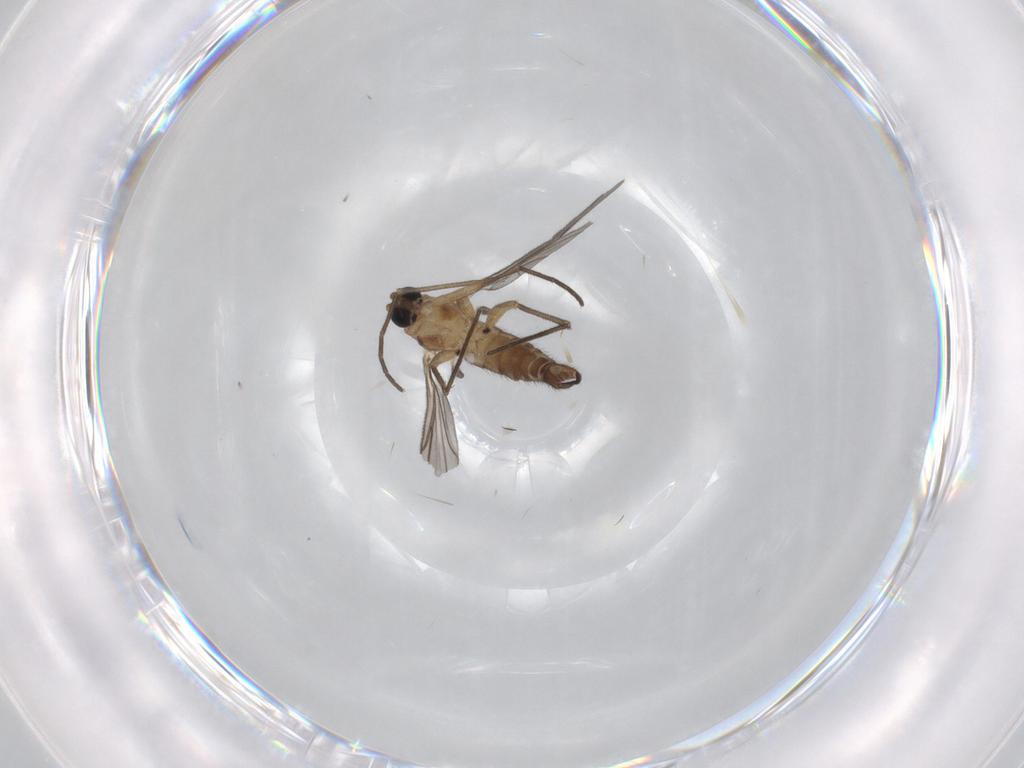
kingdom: Animalia
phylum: Arthropoda
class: Insecta
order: Diptera
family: Sciaridae
